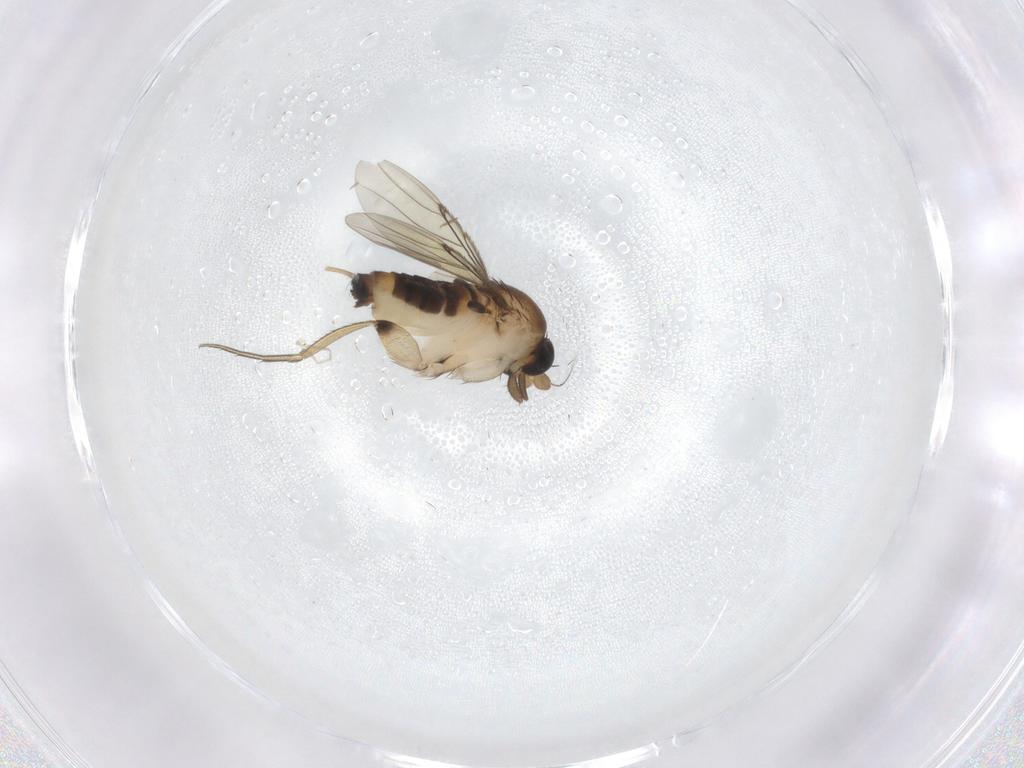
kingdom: Animalia
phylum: Arthropoda
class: Insecta
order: Diptera
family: Phoridae
